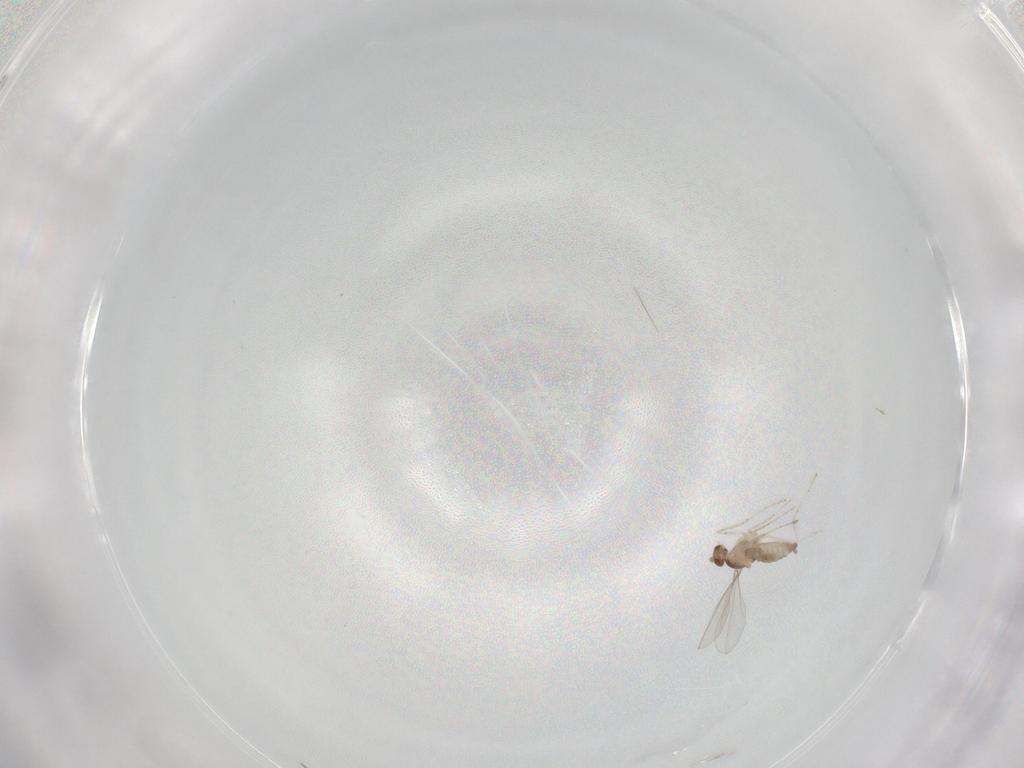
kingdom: Animalia
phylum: Arthropoda
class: Insecta
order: Diptera
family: Cecidomyiidae
